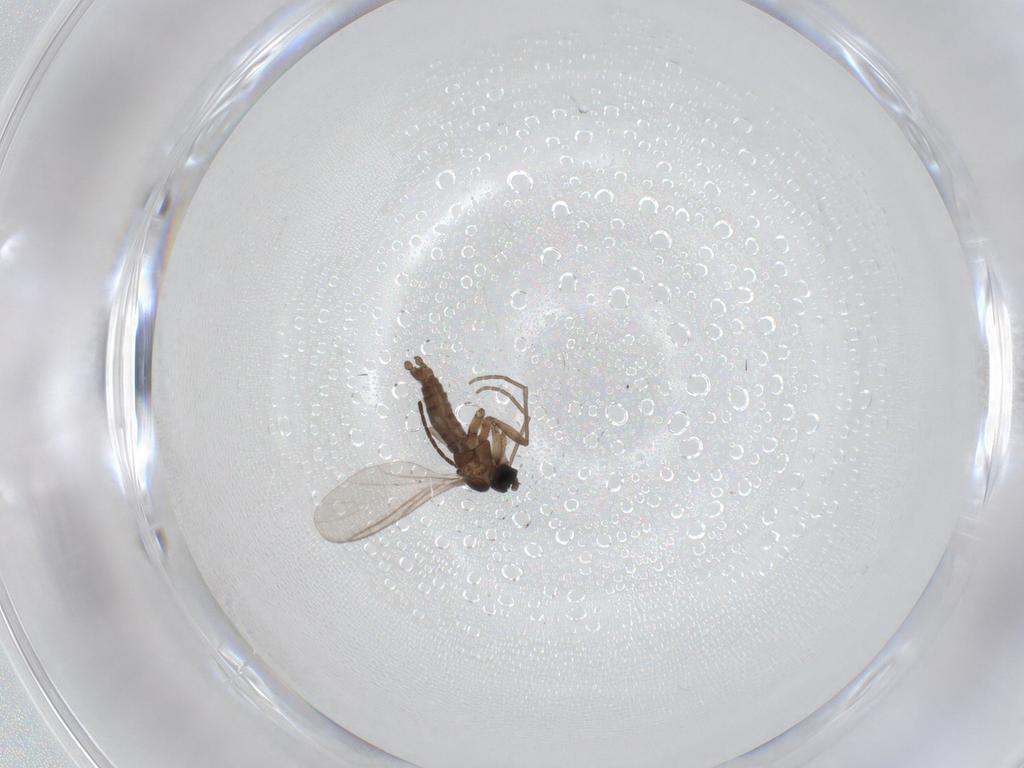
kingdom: Animalia
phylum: Arthropoda
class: Insecta
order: Diptera
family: Sciaridae
